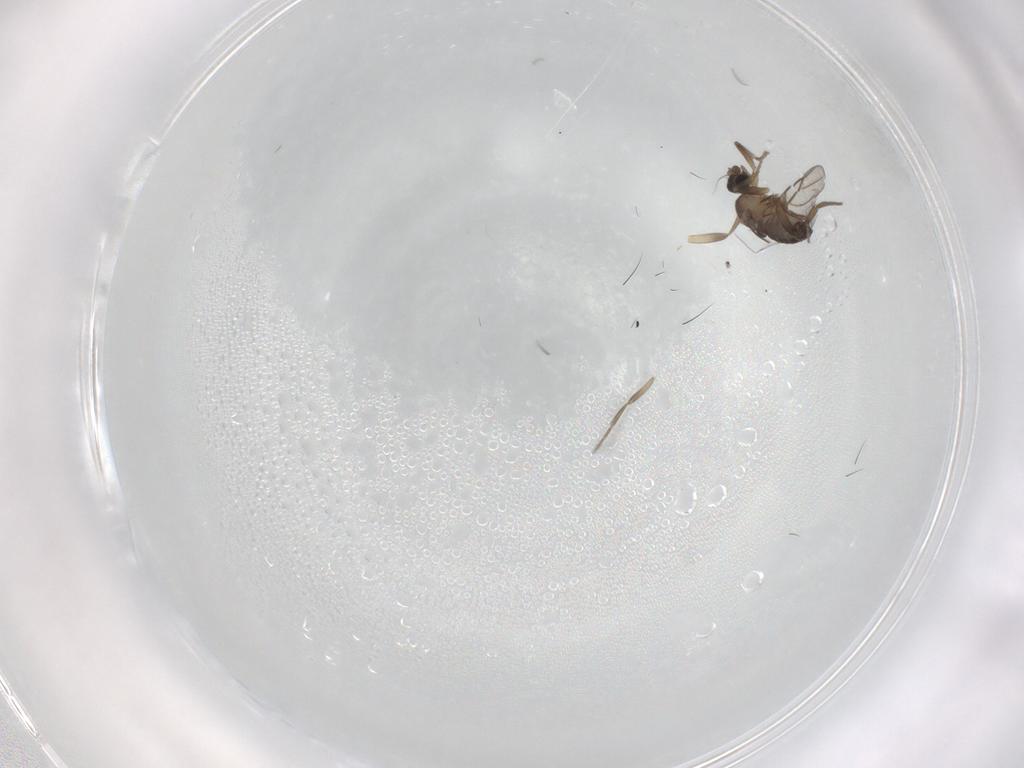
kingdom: Animalia
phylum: Arthropoda
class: Insecta
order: Diptera
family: Phoridae
